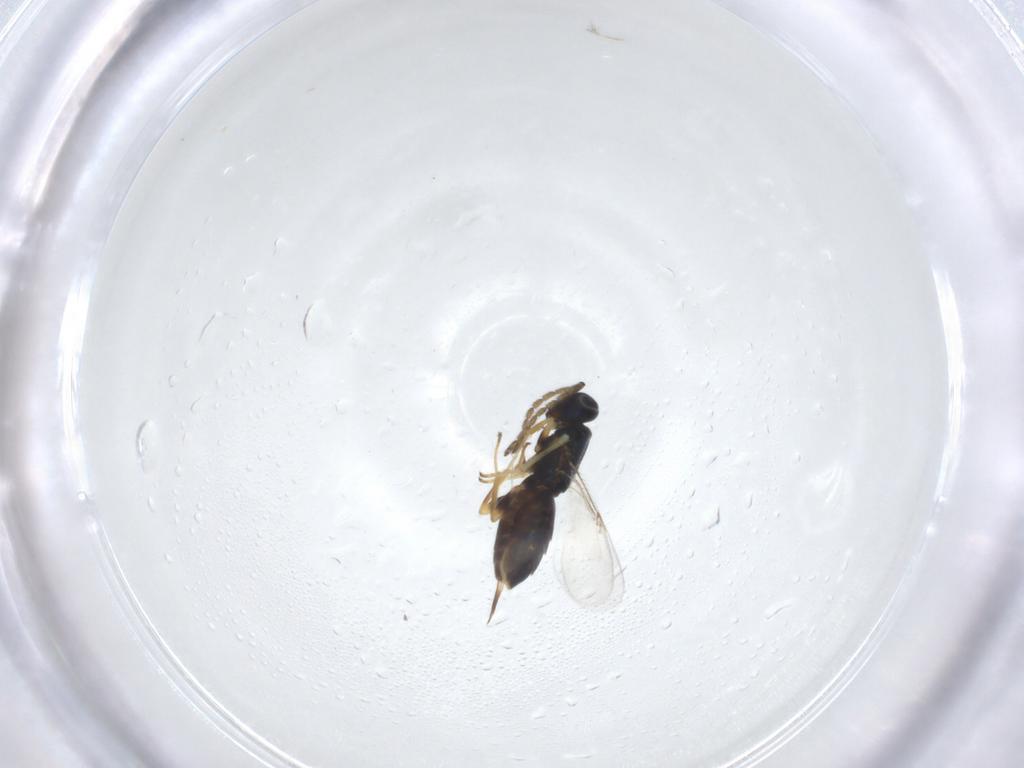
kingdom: Animalia
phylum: Arthropoda
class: Insecta
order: Hymenoptera
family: Encyrtidae
